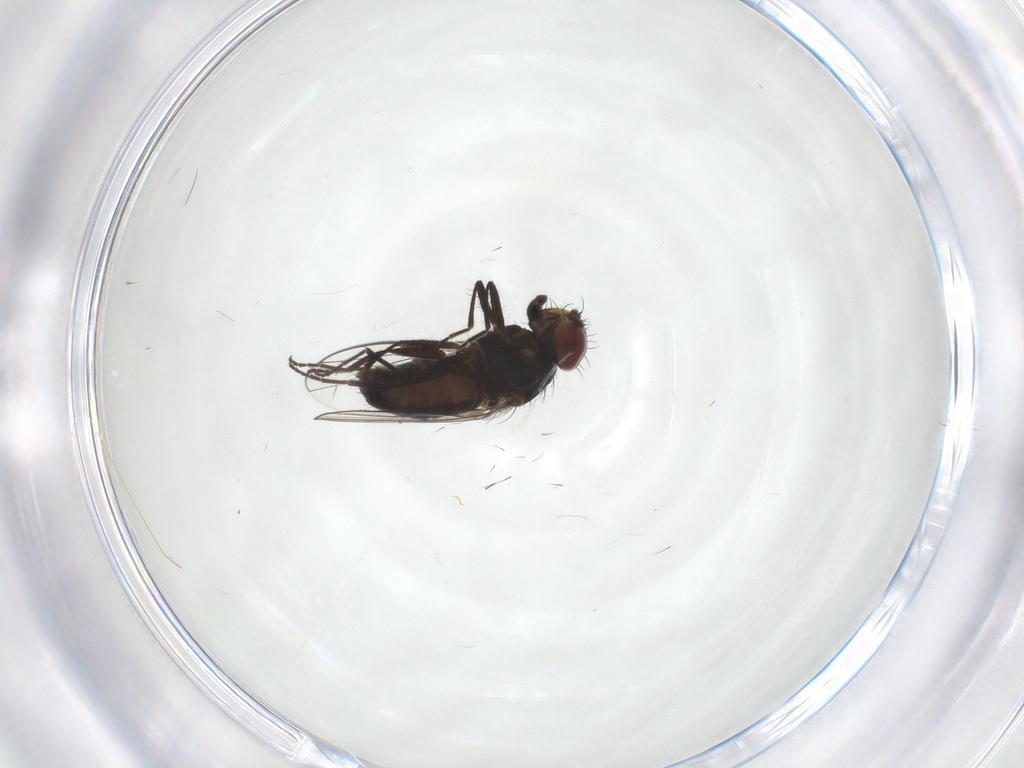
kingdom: Animalia
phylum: Arthropoda
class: Insecta
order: Diptera
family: Carnidae
